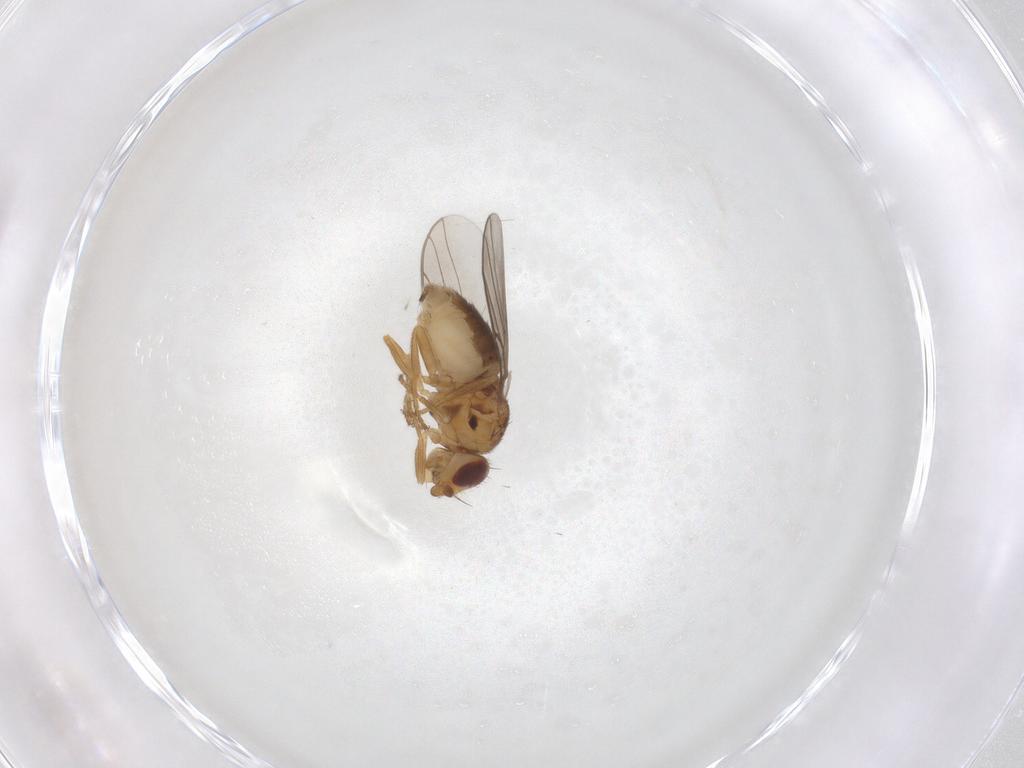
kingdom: Animalia
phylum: Arthropoda
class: Insecta
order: Diptera
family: Chloropidae
